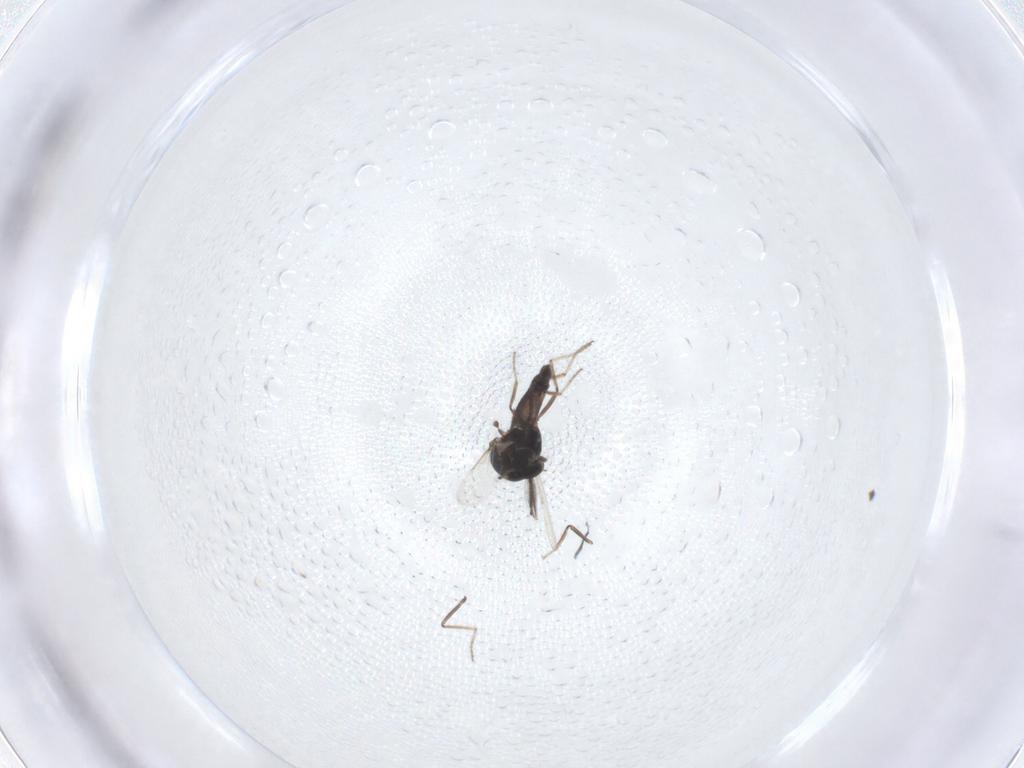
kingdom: Animalia
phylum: Arthropoda
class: Insecta
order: Diptera
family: Ceratopogonidae
